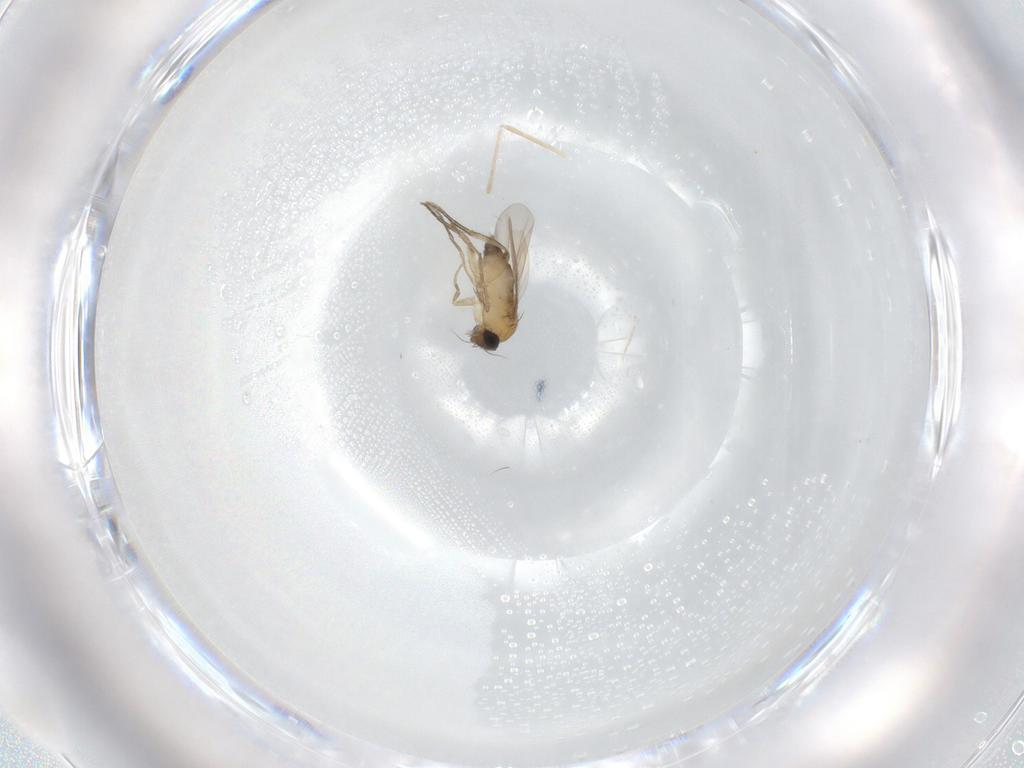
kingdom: Animalia
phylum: Arthropoda
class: Insecta
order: Diptera
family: Phoridae
